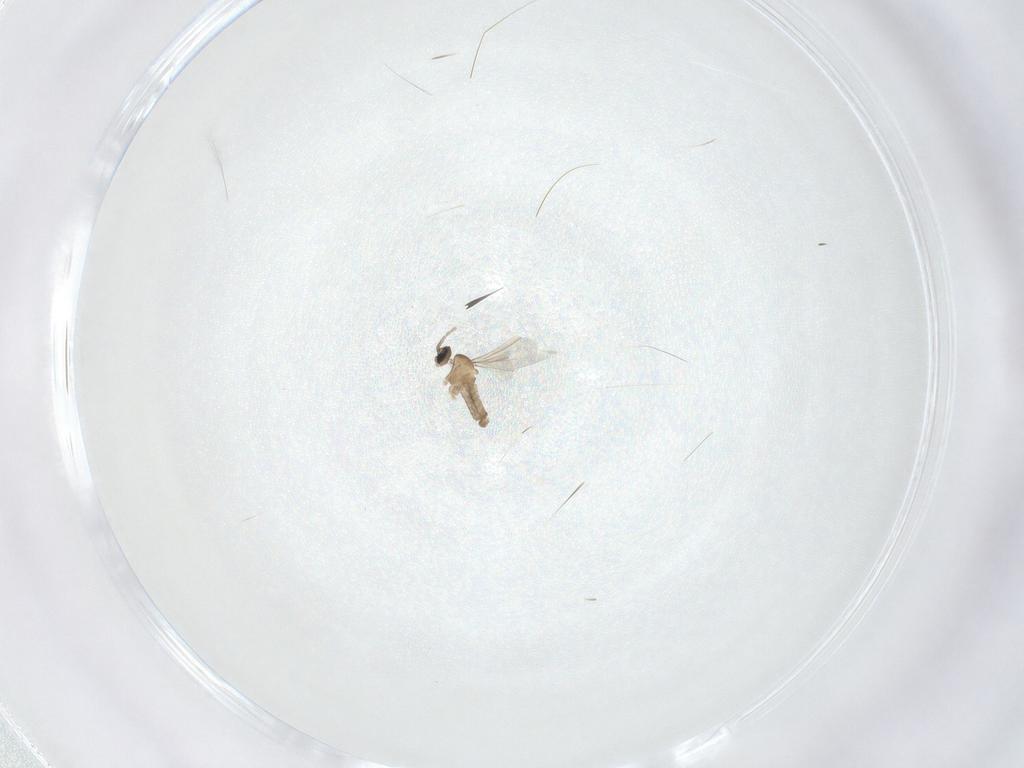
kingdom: Animalia
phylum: Arthropoda
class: Insecta
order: Diptera
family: Cecidomyiidae
